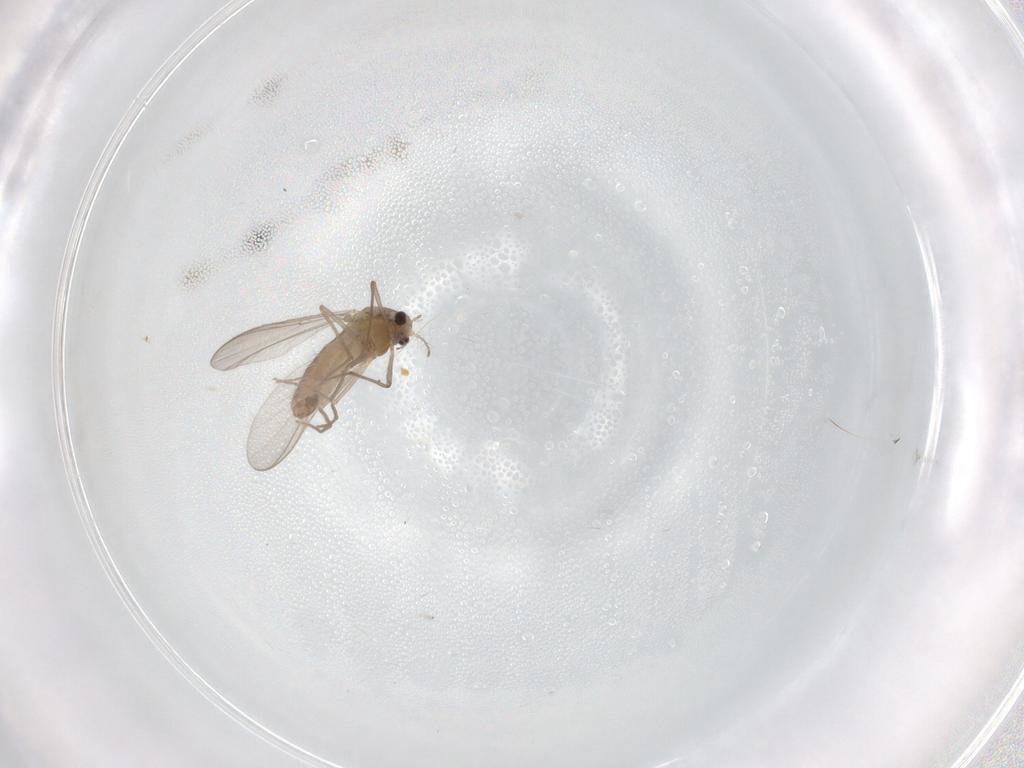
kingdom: Animalia
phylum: Arthropoda
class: Insecta
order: Diptera
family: Chironomidae
